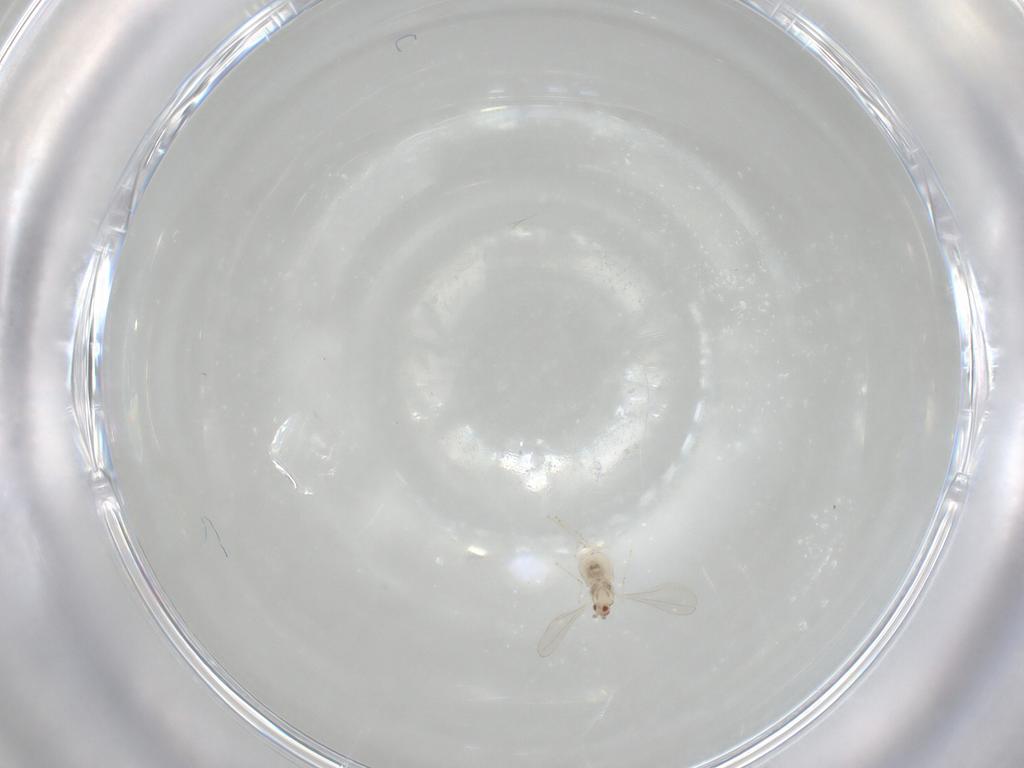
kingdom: Animalia
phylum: Arthropoda
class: Insecta
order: Diptera
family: Cecidomyiidae
